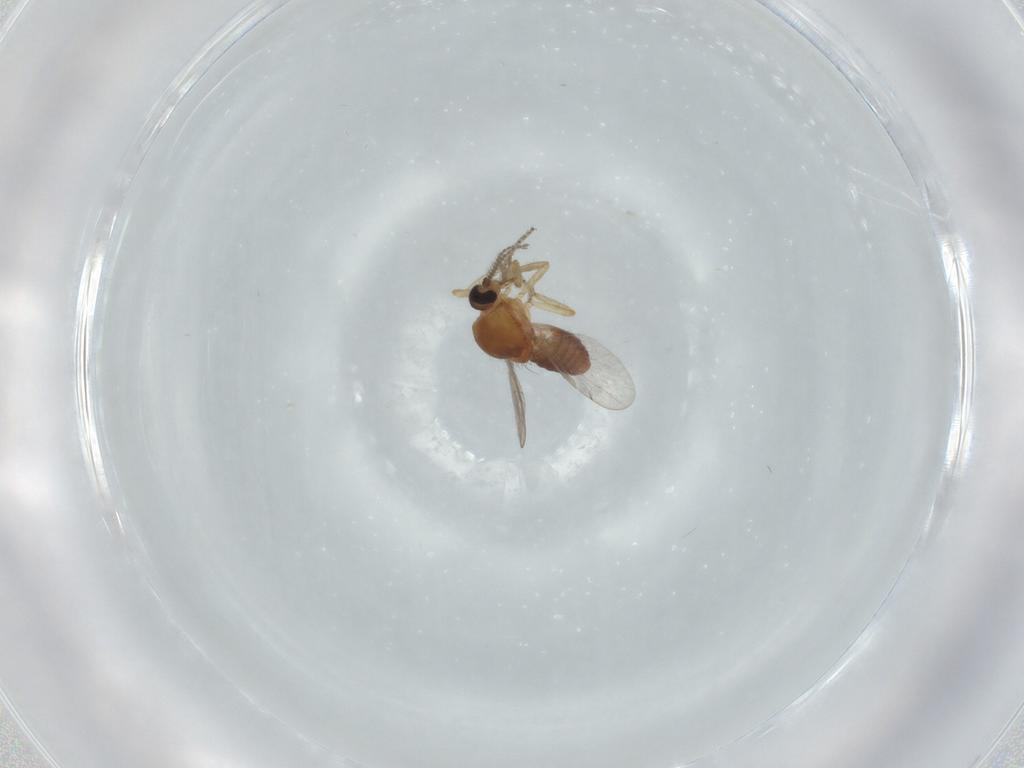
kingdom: Animalia
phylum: Arthropoda
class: Insecta
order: Diptera
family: Ceratopogonidae
